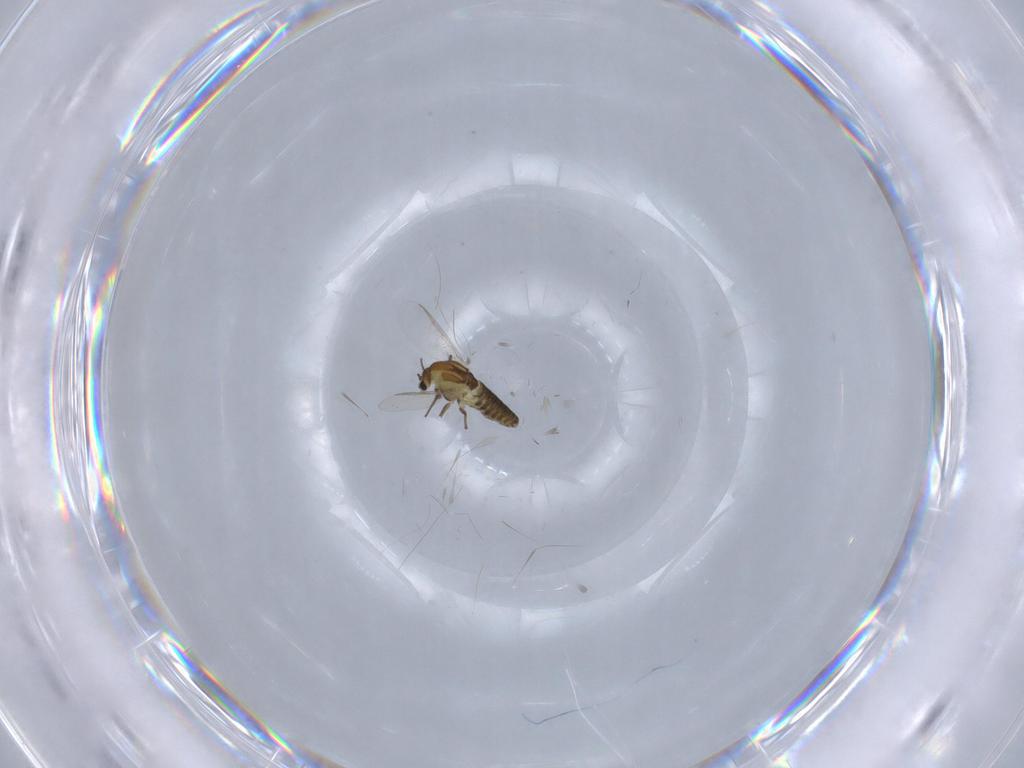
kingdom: Animalia
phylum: Arthropoda
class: Insecta
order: Diptera
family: Chironomidae
